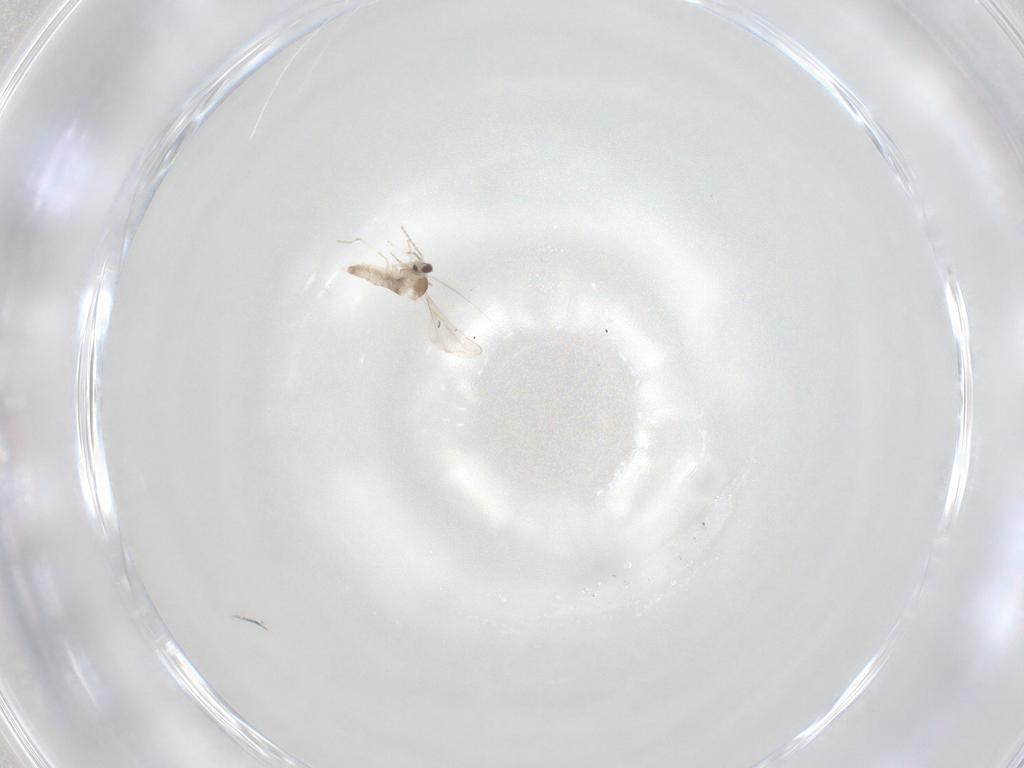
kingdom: Animalia
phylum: Arthropoda
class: Insecta
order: Diptera
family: Cecidomyiidae
